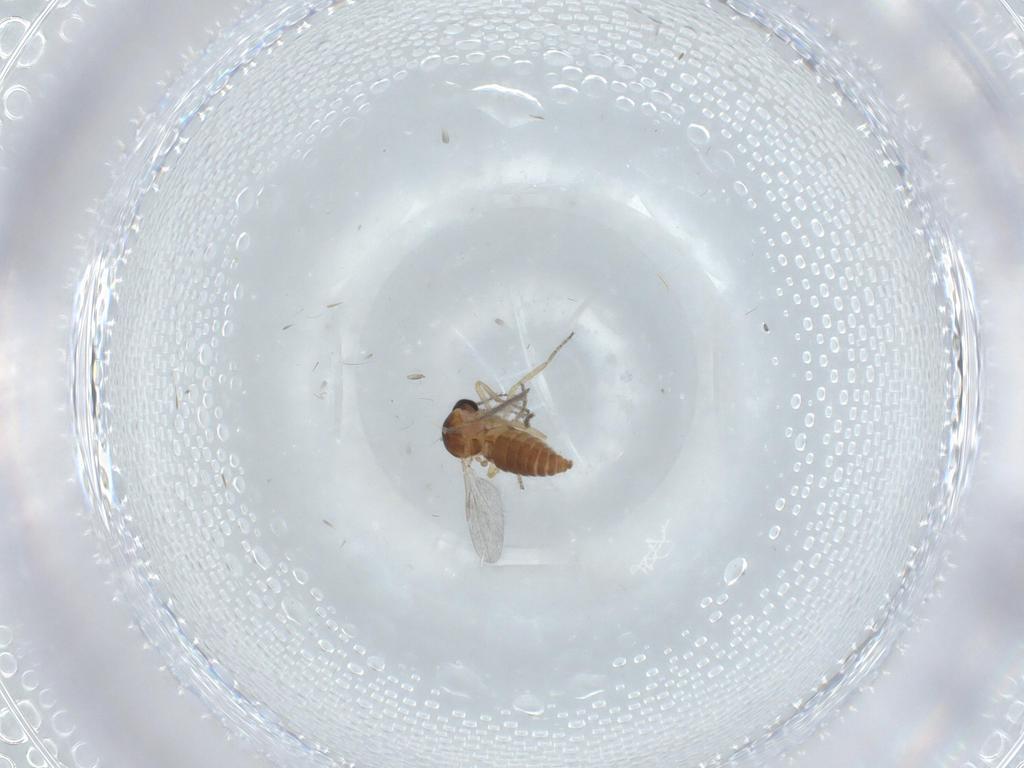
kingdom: Animalia
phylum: Arthropoda
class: Insecta
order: Diptera
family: Ceratopogonidae
